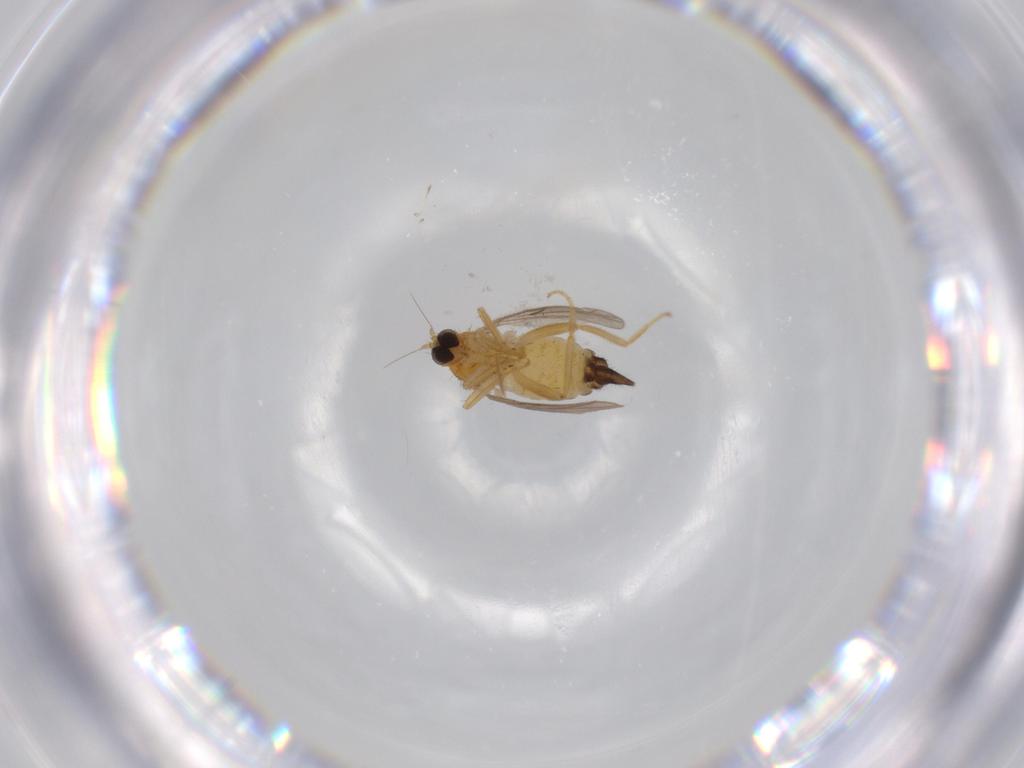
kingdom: Animalia
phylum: Arthropoda
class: Insecta
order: Diptera
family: Hybotidae
